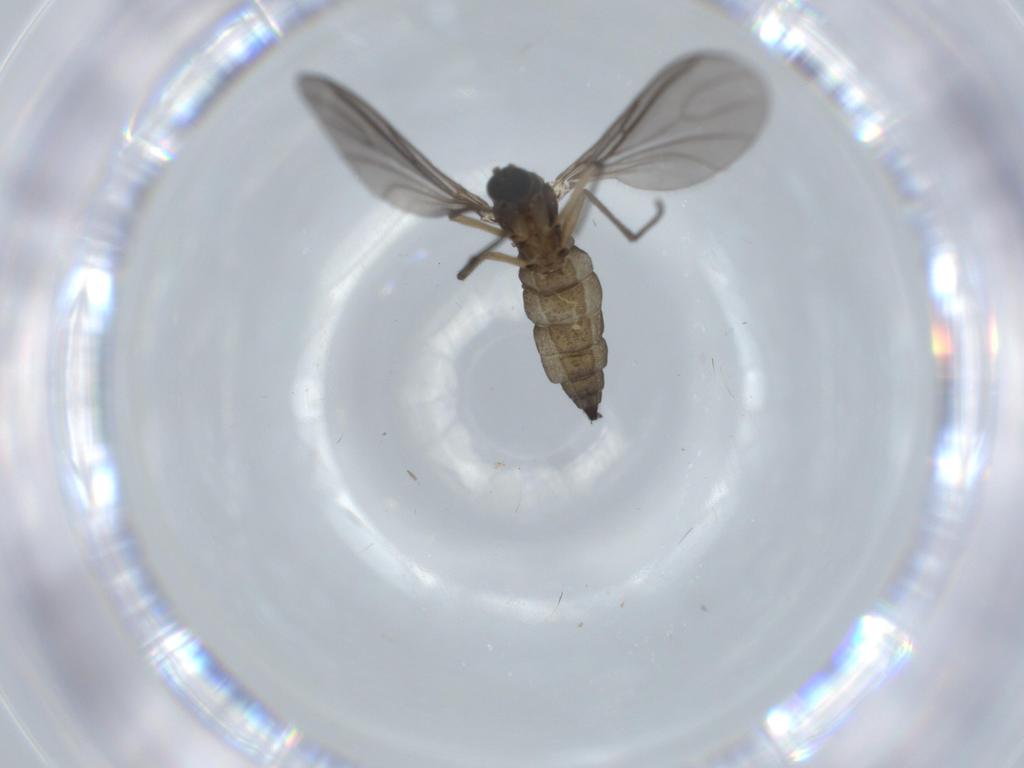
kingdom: Animalia
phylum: Arthropoda
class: Insecta
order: Diptera
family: Sciaridae
